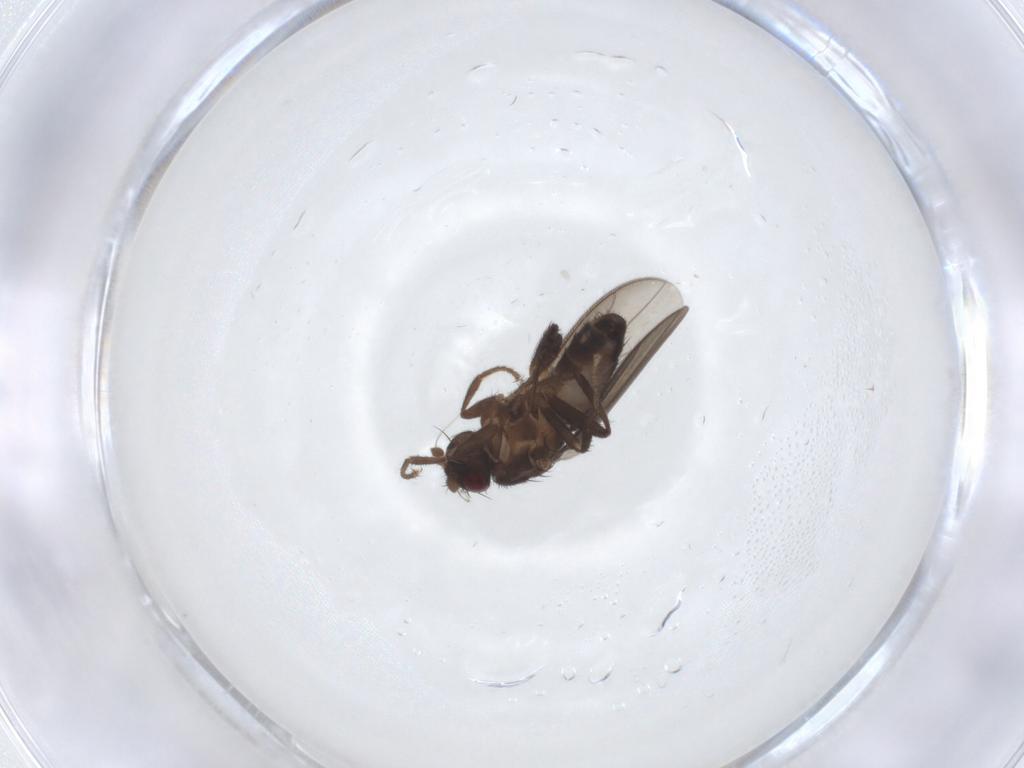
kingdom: Animalia
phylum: Arthropoda
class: Insecta
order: Diptera
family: Sphaeroceridae
